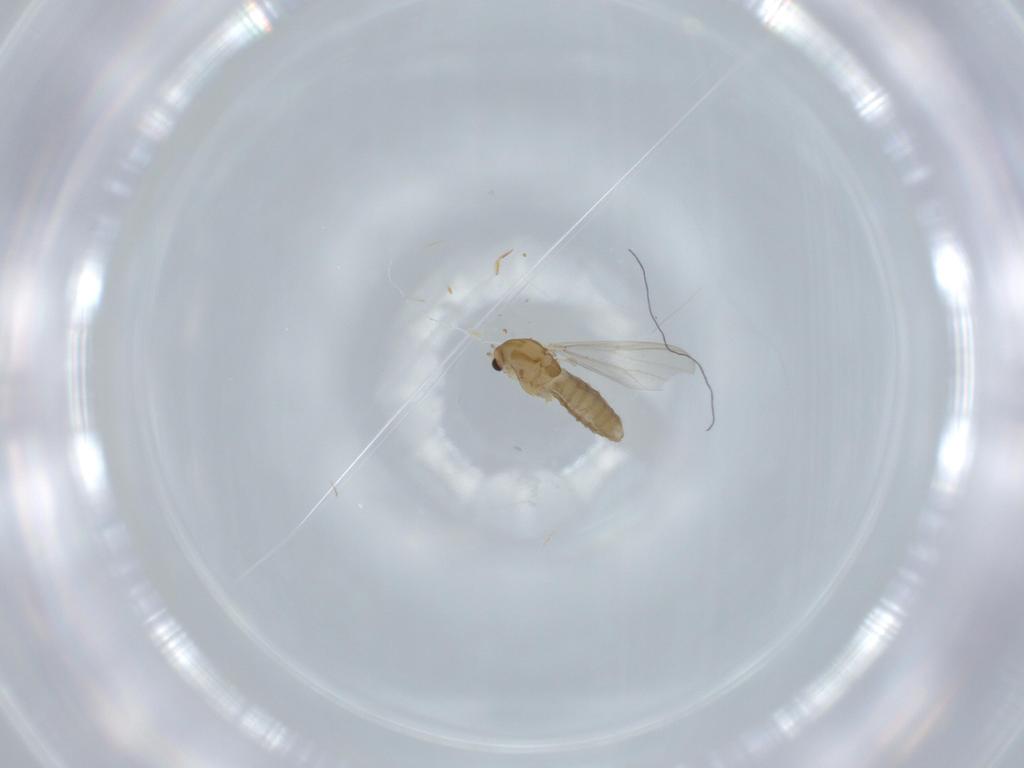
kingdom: Animalia
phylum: Arthropoda
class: Insecta
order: Diptera
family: Chironomidae
